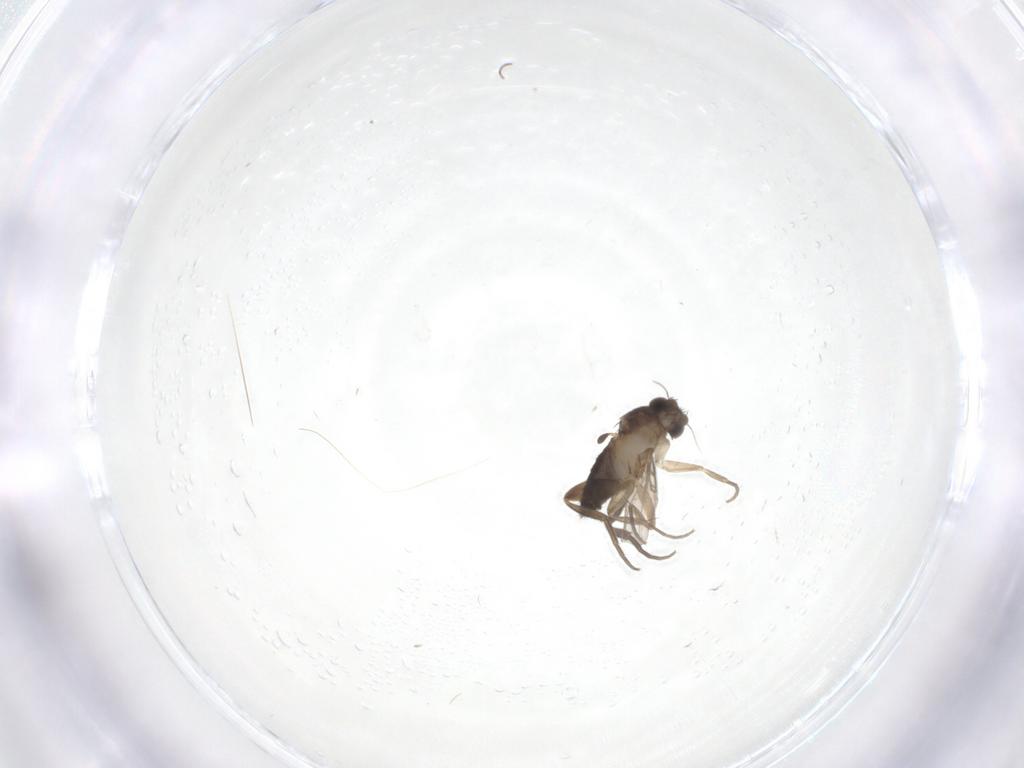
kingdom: Animalia
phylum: Arthropoda
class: Insecta
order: Diptera
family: Phoridae
